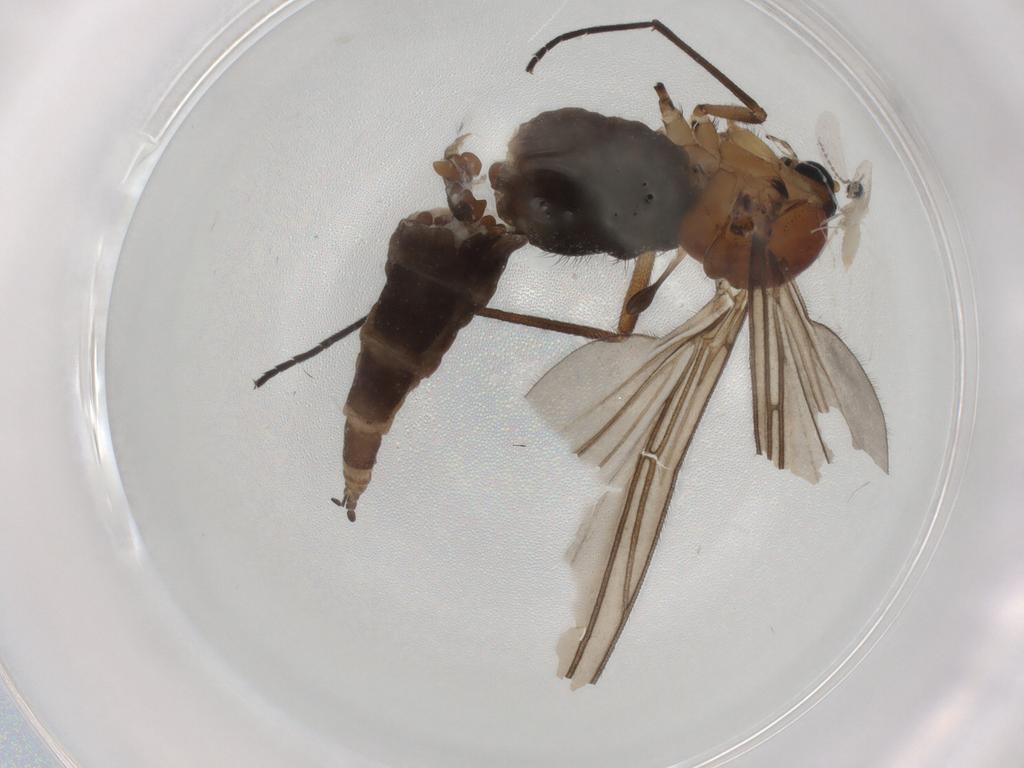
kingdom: Animalia
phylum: Arthropoda
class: Insecta
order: Diptera
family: Sciaridae
